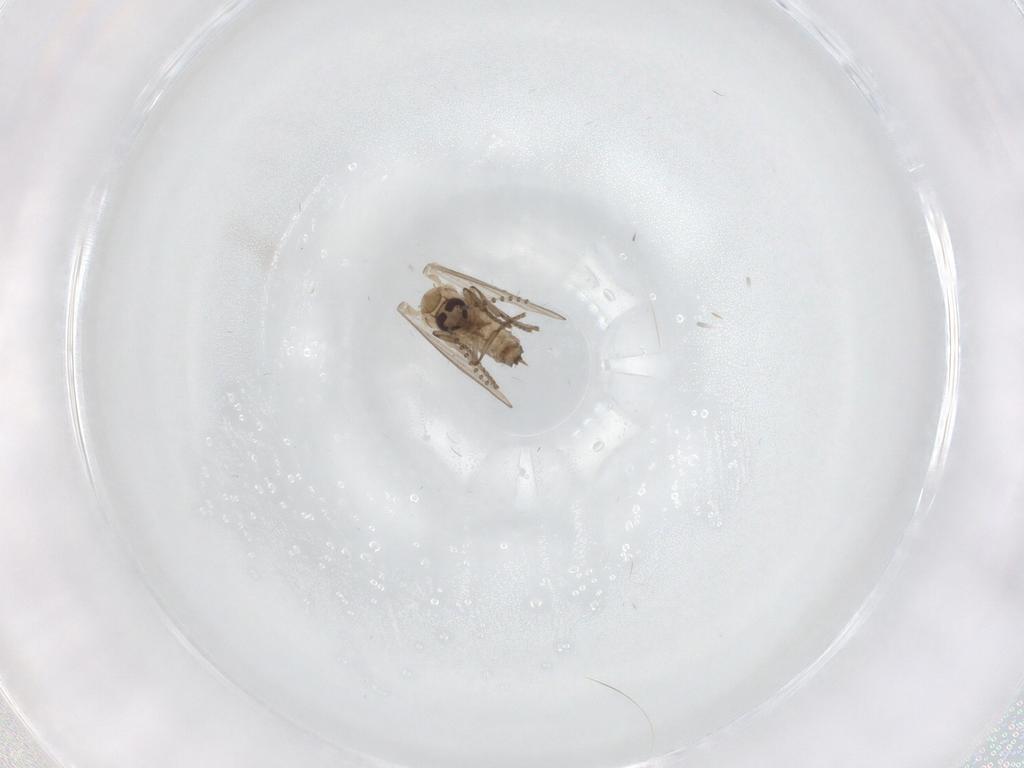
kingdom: Animalia
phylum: Arthropoda
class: Insecta
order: Diptera
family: Psychodidae
